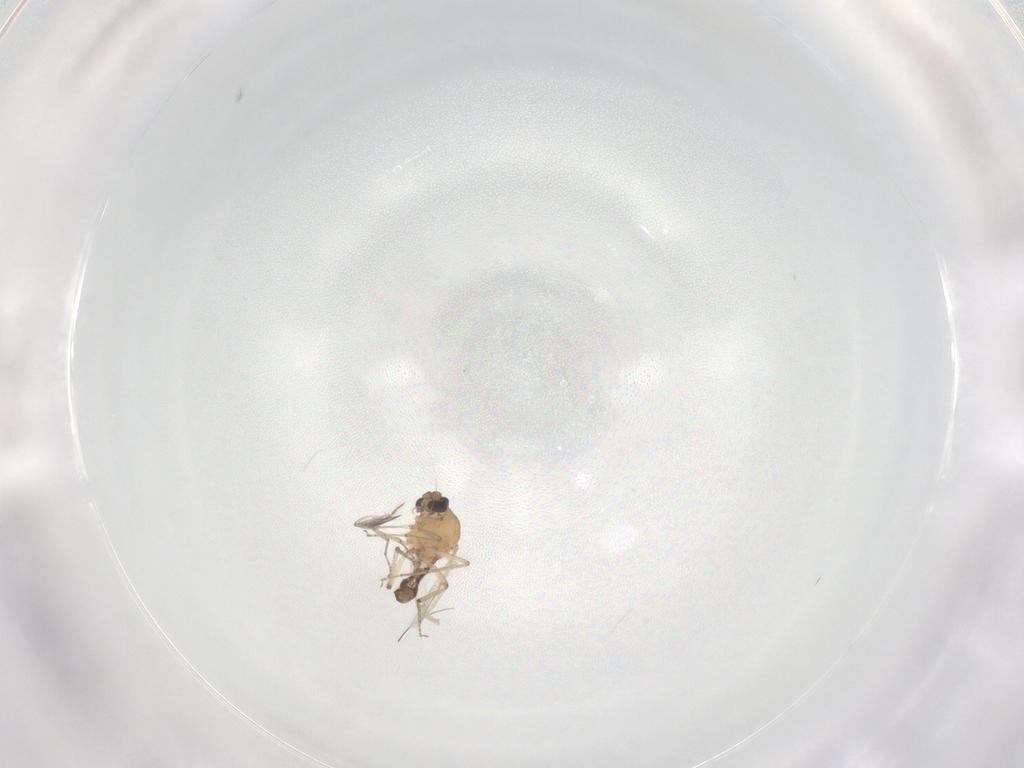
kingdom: Animalia
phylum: Arthropoda
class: Insecta
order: Diptera
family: Ceratopogonidae
